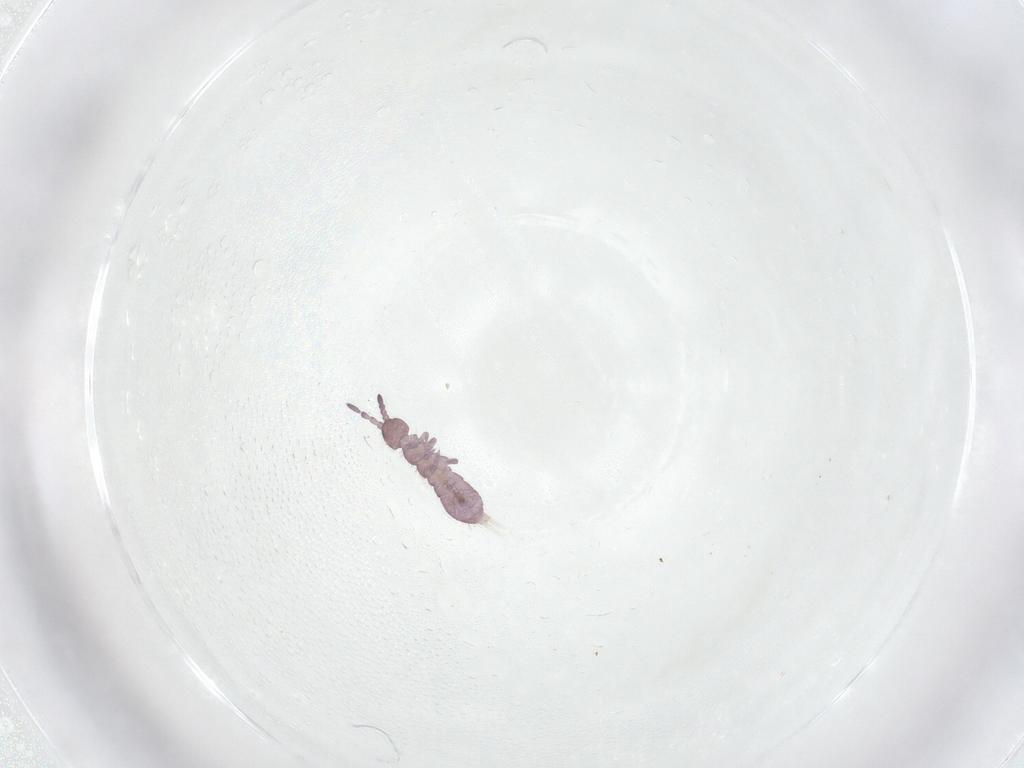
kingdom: Animalia
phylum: Arthropoda
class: Collembola
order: Entomobryomorpha
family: Isotomidae
